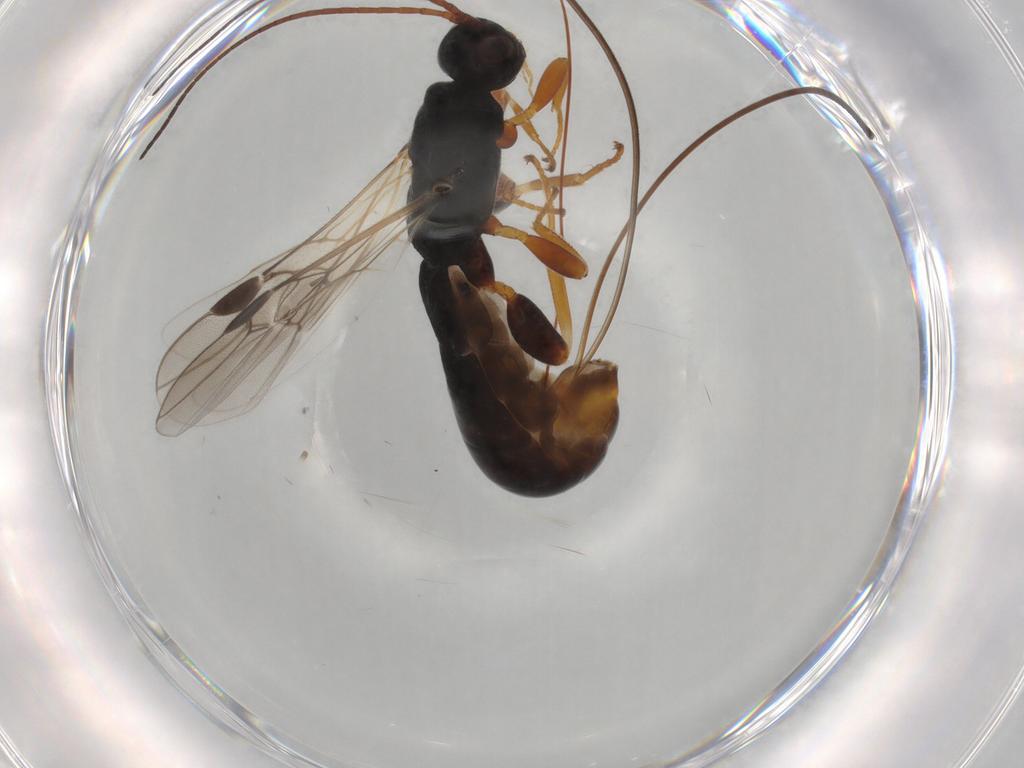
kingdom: Animalia
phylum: Arthropoda
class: Insecta
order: Hymenoptera
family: Braconidae
